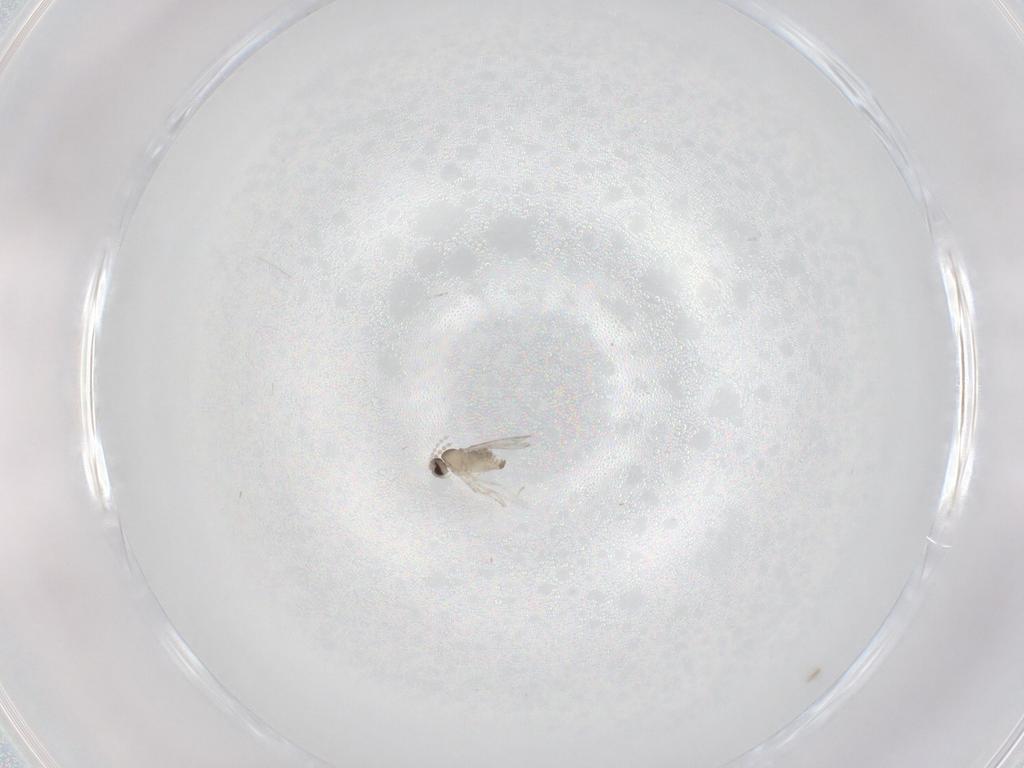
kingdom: Animalia
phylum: Arthropoda
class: Insecta
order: Diptera
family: Cecidomyiidae
